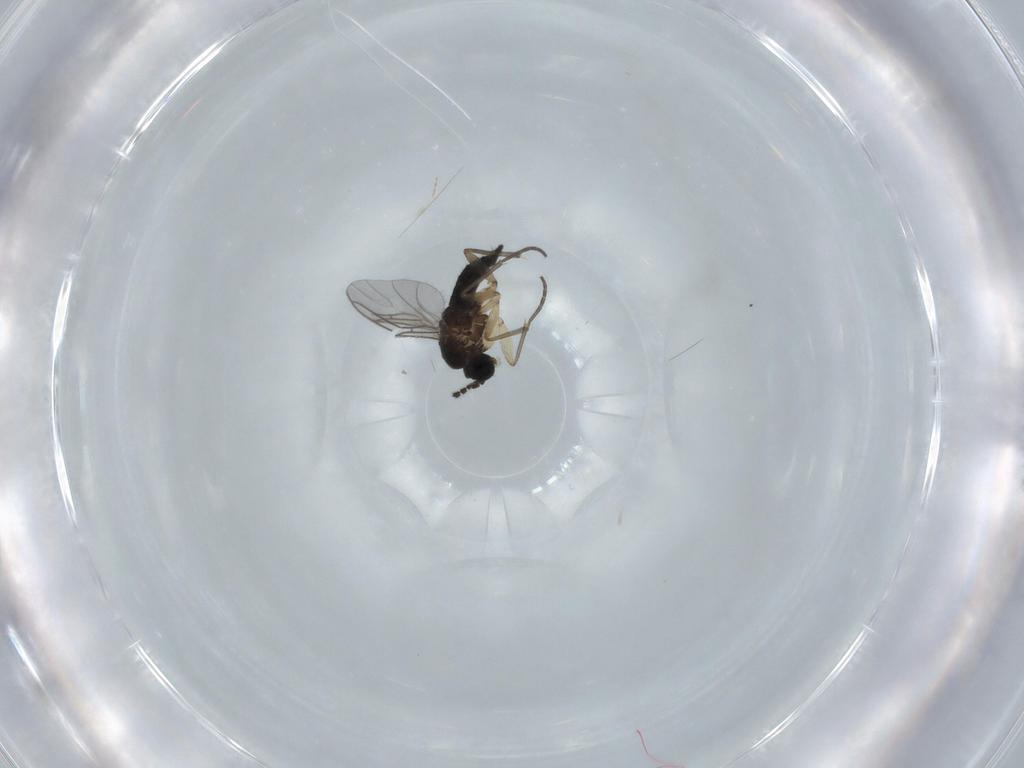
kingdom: Animalia
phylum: Arthropoda
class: Insecta
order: Diptera
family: Sciaridae
